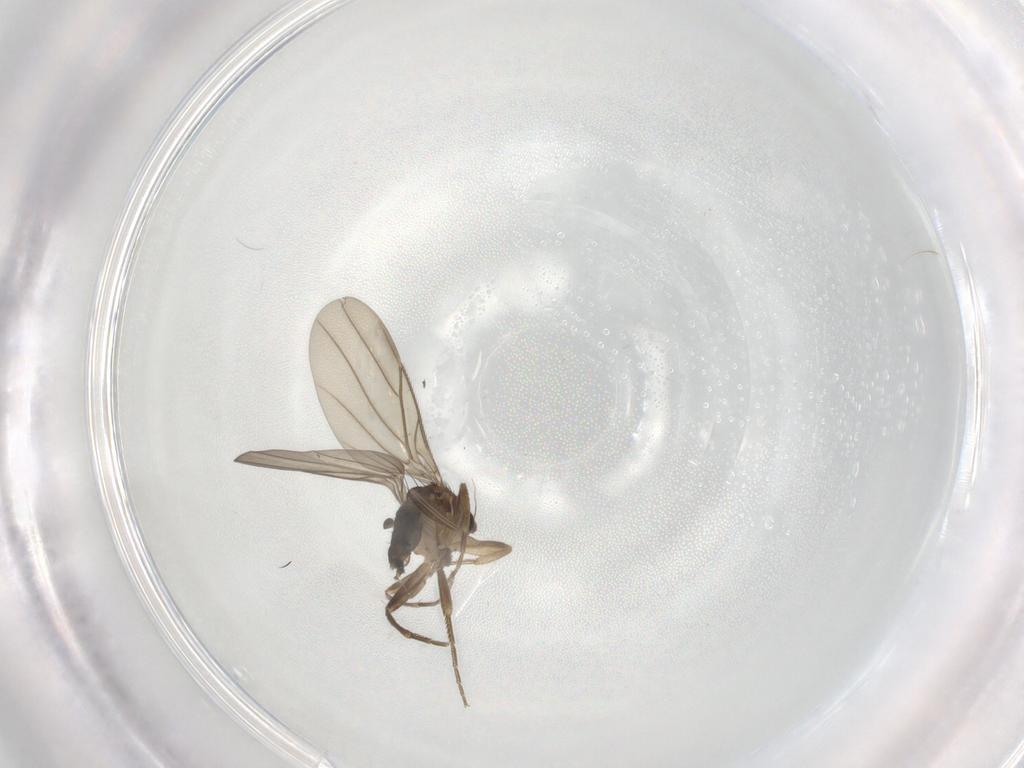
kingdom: Animalia
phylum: Arthropoda
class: Insecta
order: Diptera
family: Phoridae
